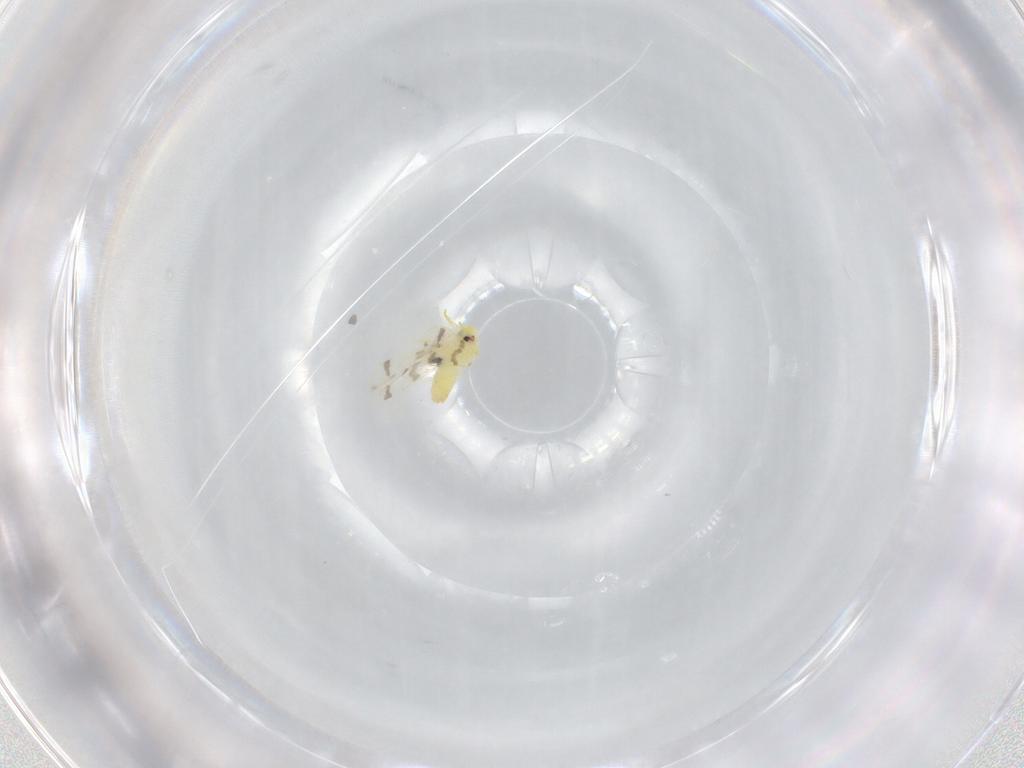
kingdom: Animalia
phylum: Arthropoda
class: Insecta
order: Hemiptera
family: Aleyrodidae
